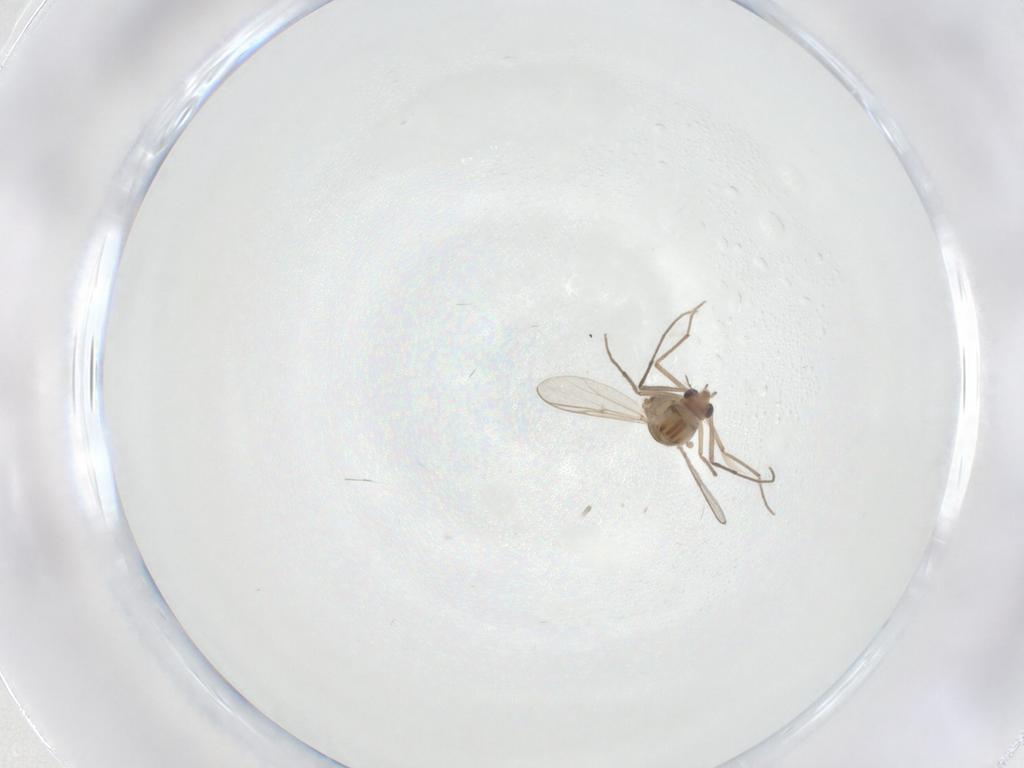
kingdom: Animalia
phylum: Arthropoda
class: Insecta
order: Diptera
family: Chironomidae
